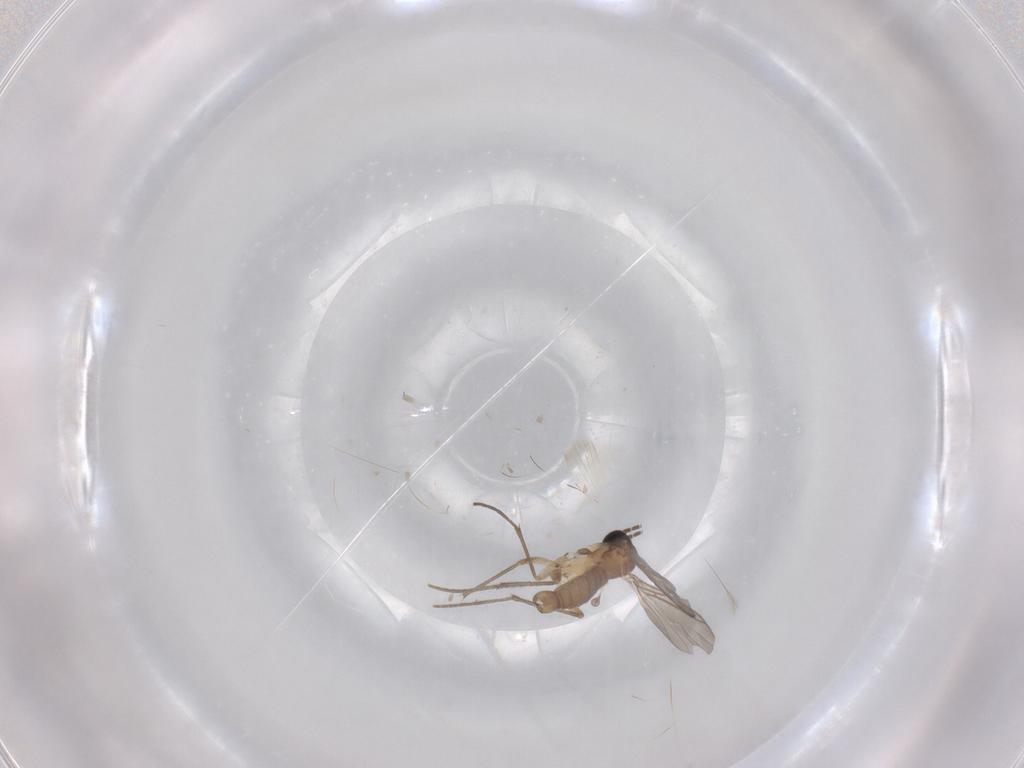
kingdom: Animalia
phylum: Arthropoda
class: Insecta
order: Diptera
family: Sciaridae
